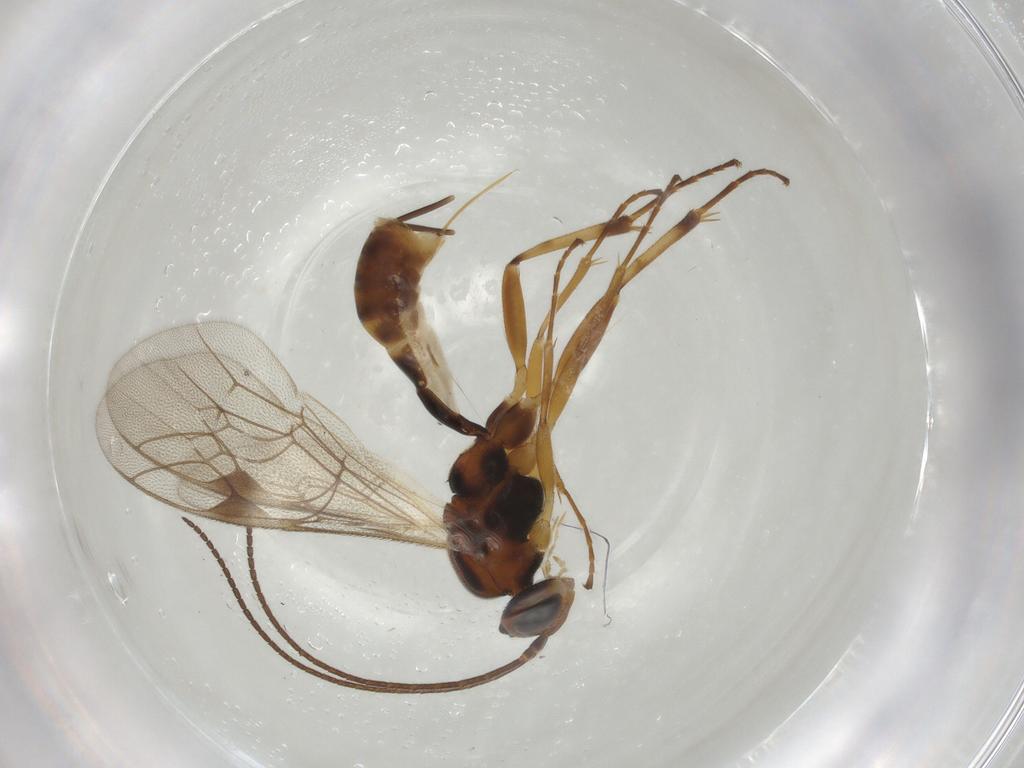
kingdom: Animalia
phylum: Arthropoda
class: Insecta
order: Hymenoptera
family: Ichneumonidae
